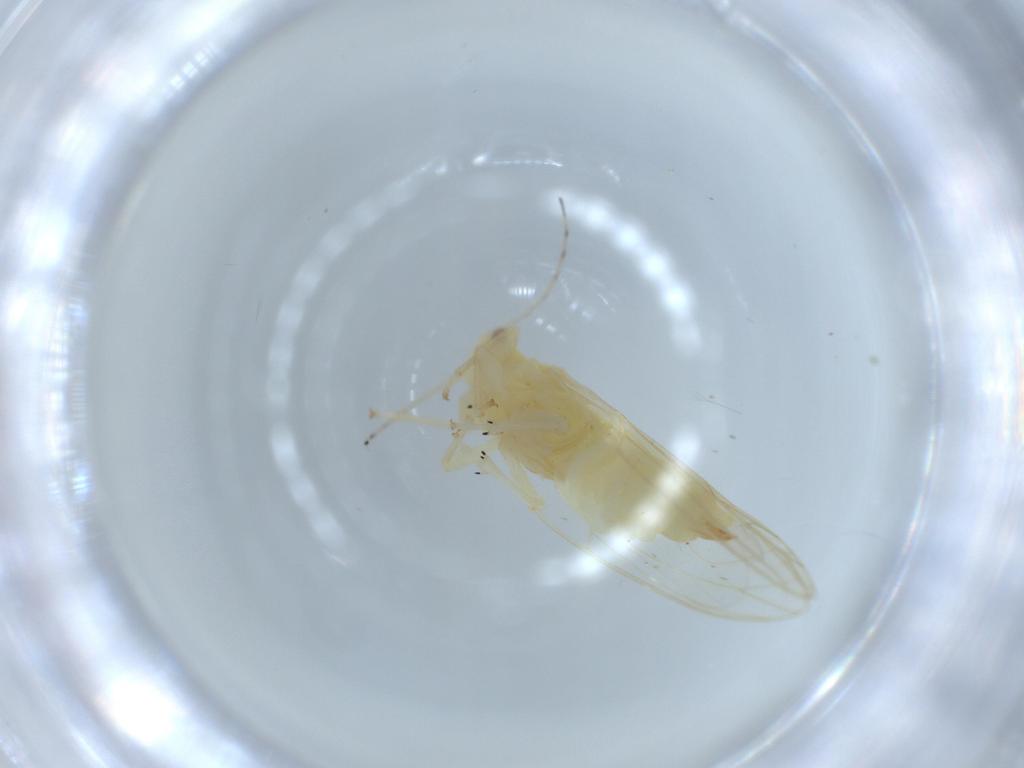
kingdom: Animalia
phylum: Arthropoda
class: Insecta
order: Hemiptera
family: Triozidae
